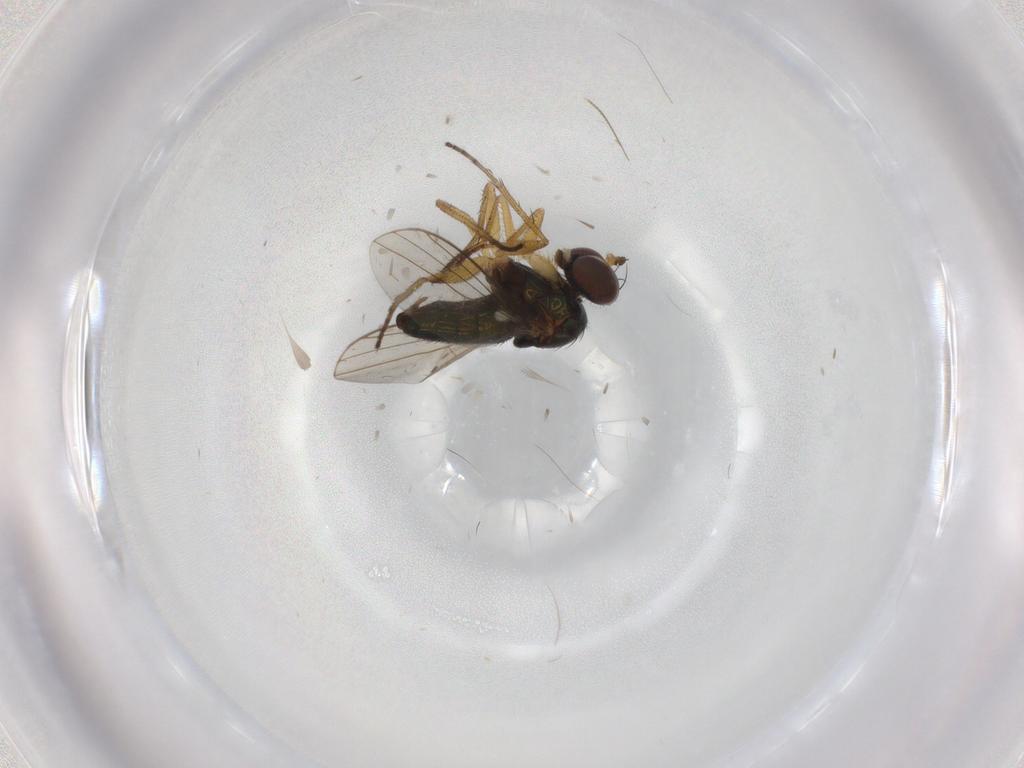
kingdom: Animalia
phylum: Arthropoda
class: Insecta
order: Diptera
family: Dolichopodidae
